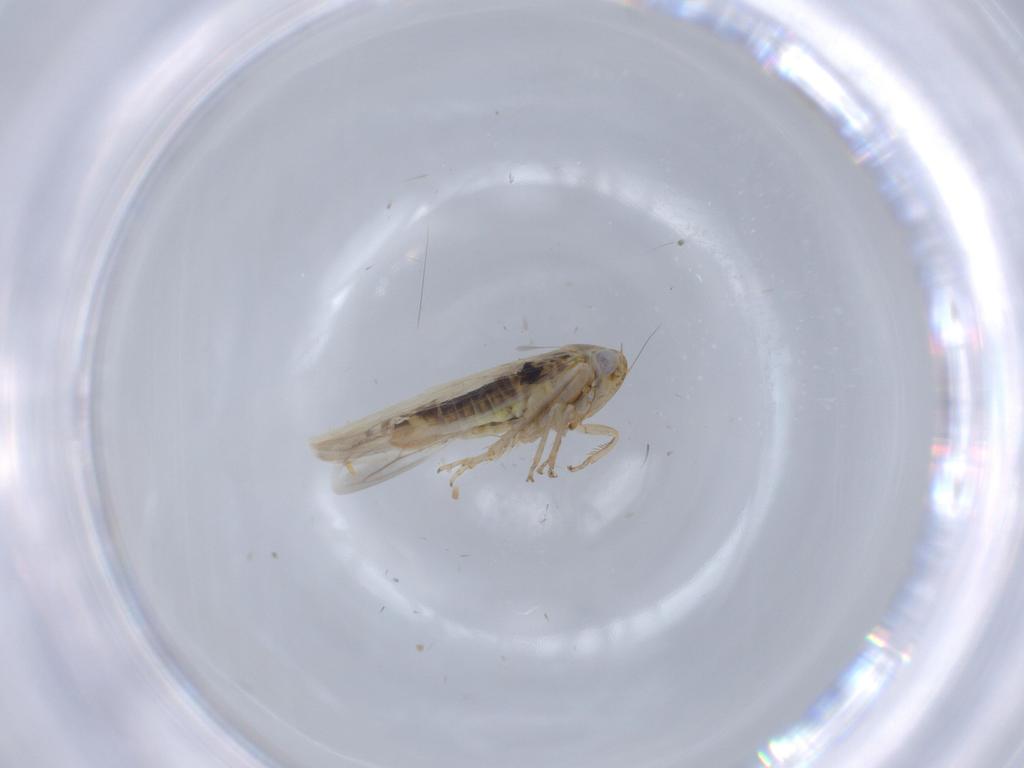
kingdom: Animalia
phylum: Arthropoda
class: Insecta
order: Hemiptera
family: Cicadellidae
